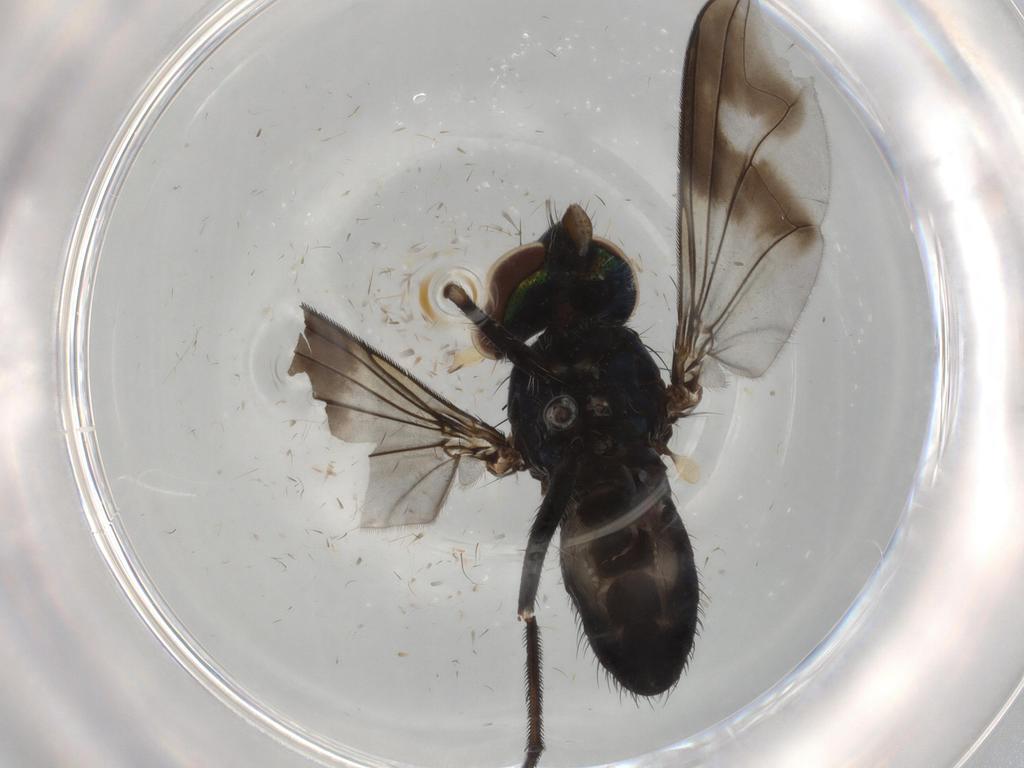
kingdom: Animalia
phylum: Arthropoda
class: Insecta
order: Diptera
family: Dolichopodidae
